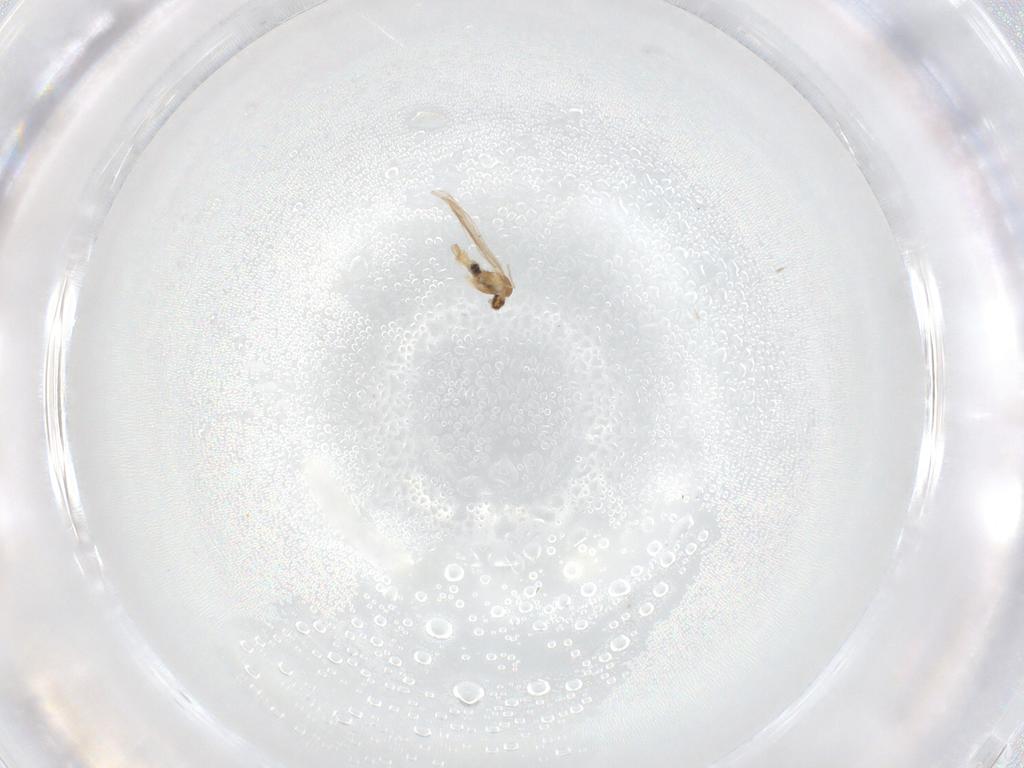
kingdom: Animalia
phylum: Arthropoda
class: Insecta
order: Diptera
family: Cecidomyiidae
